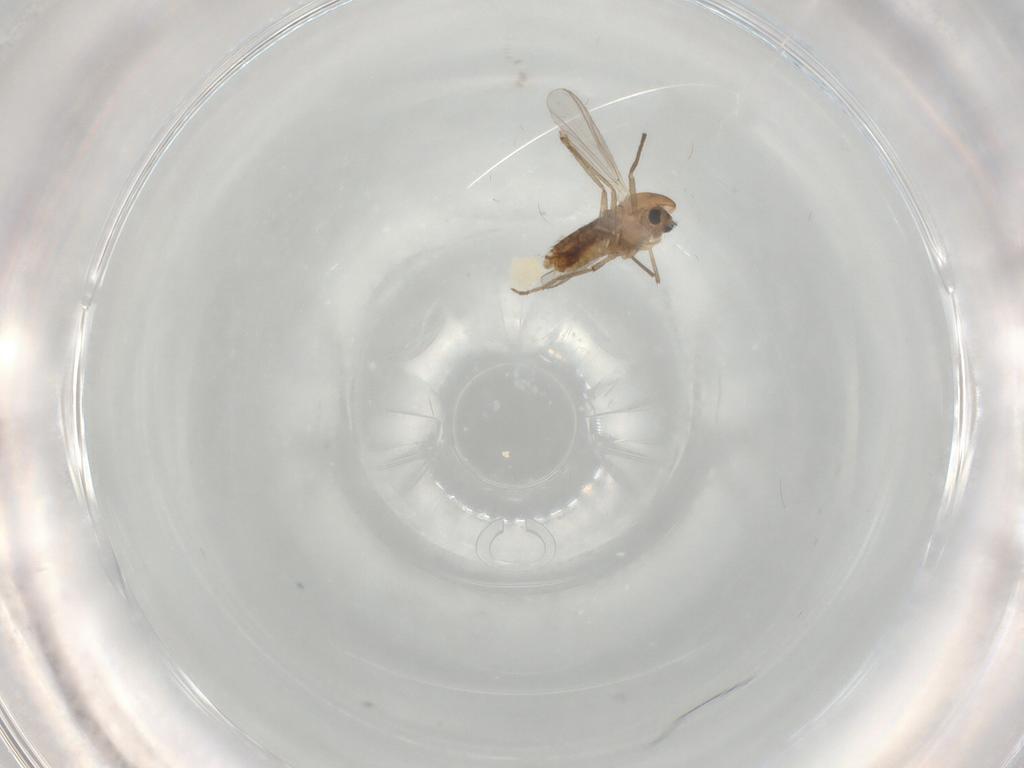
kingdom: Animalia
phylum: Arthropoda
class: Insecta
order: Diptera
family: Chironomidae
